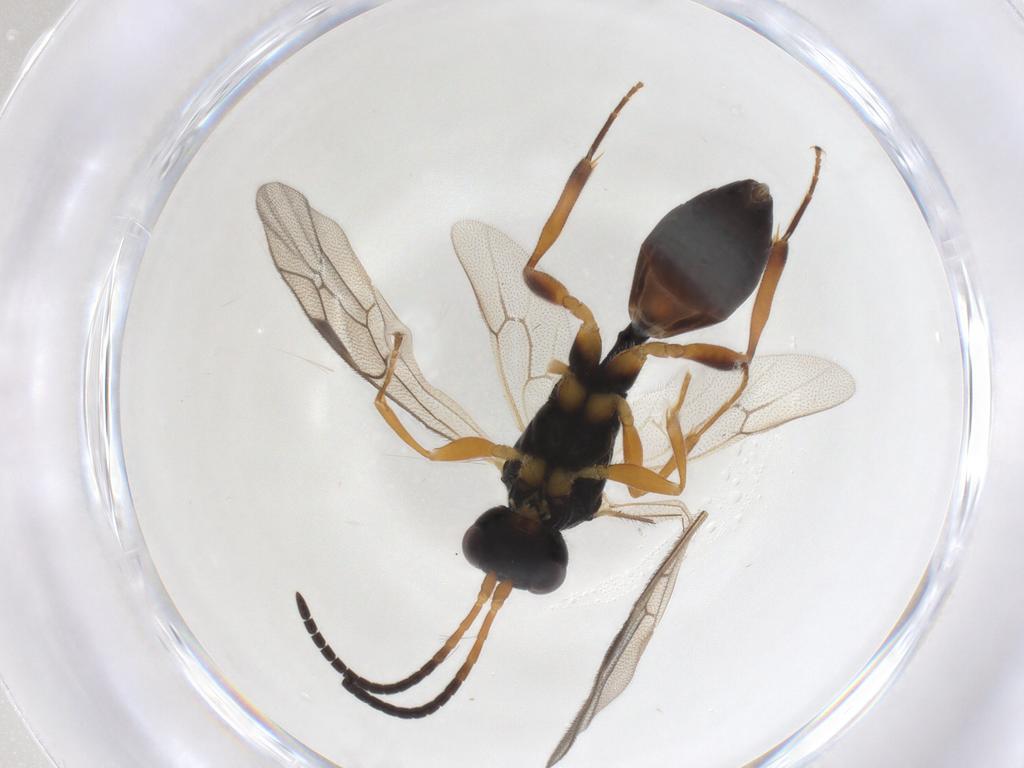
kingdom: Animalia
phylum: Arthropoda
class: Insecta
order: Hymenoptera
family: Ichneumonidae
